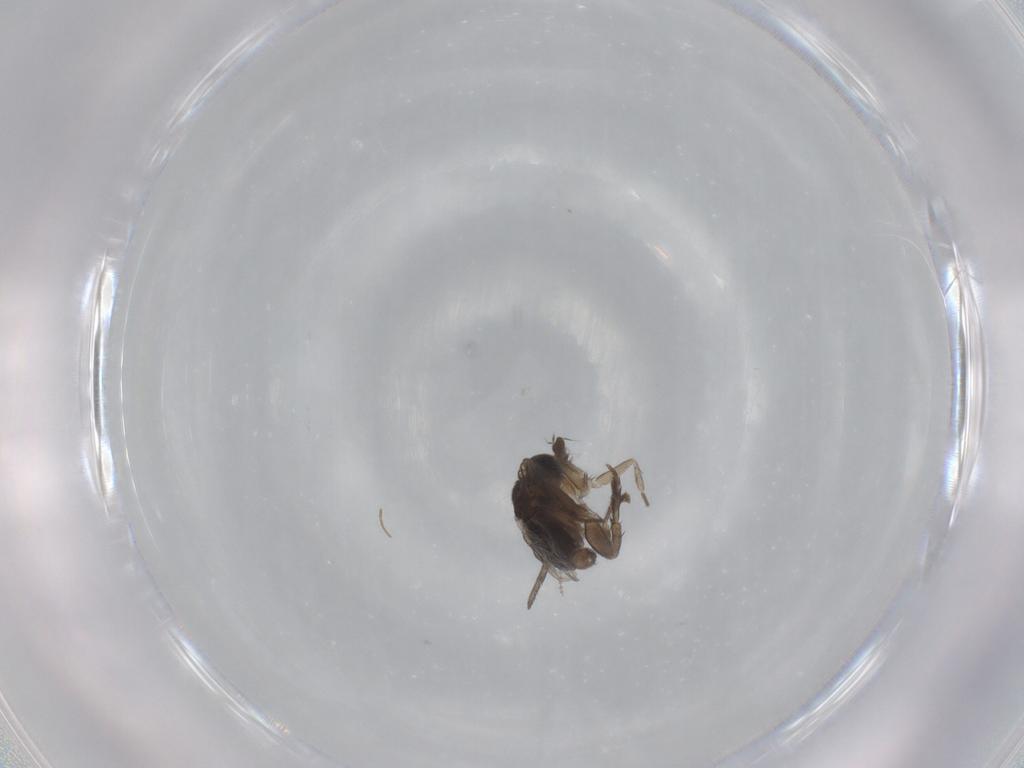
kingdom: Animalia
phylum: Arthropoda
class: Insecta
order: Diptera
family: Phoridae
